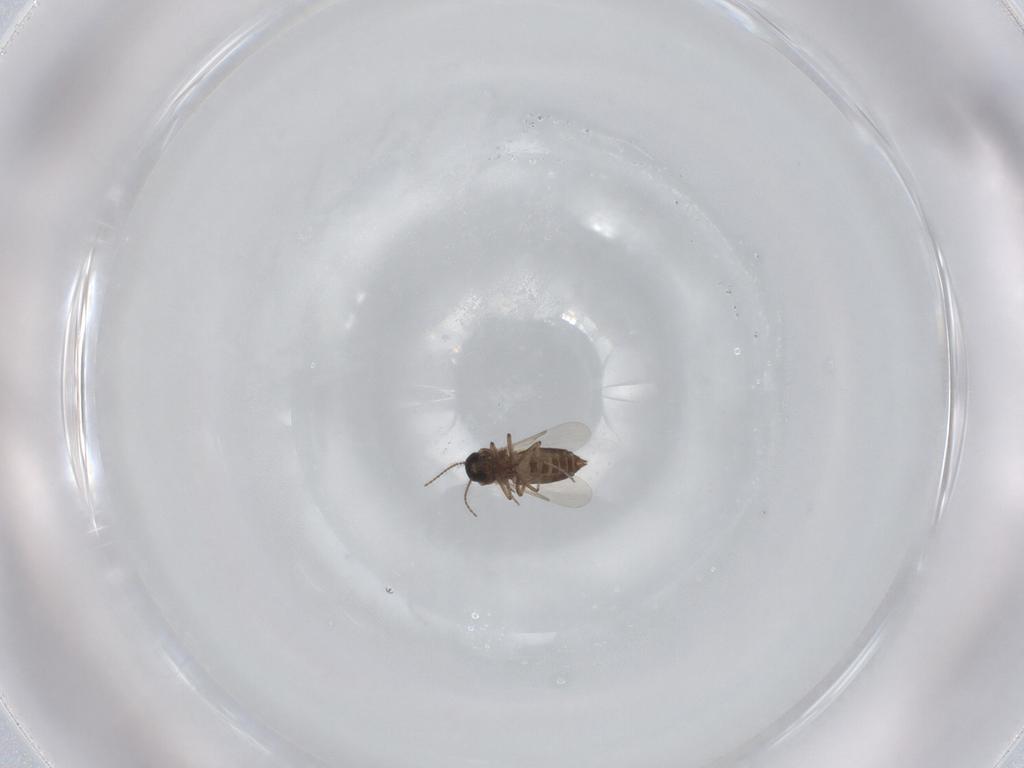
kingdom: Animalia
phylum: Arthropoda
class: Insecta
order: Diptera
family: Ceratopogonidae
